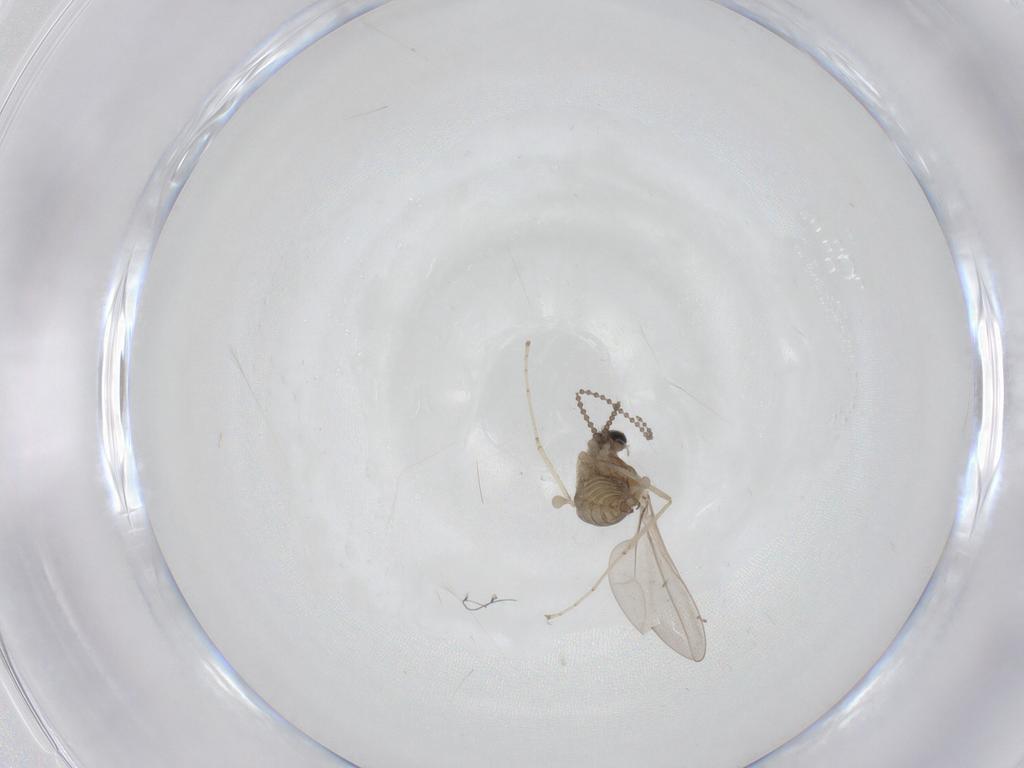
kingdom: Animalia
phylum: Arthropoda
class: Insecta
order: Diptera
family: Cecidomyiidae
